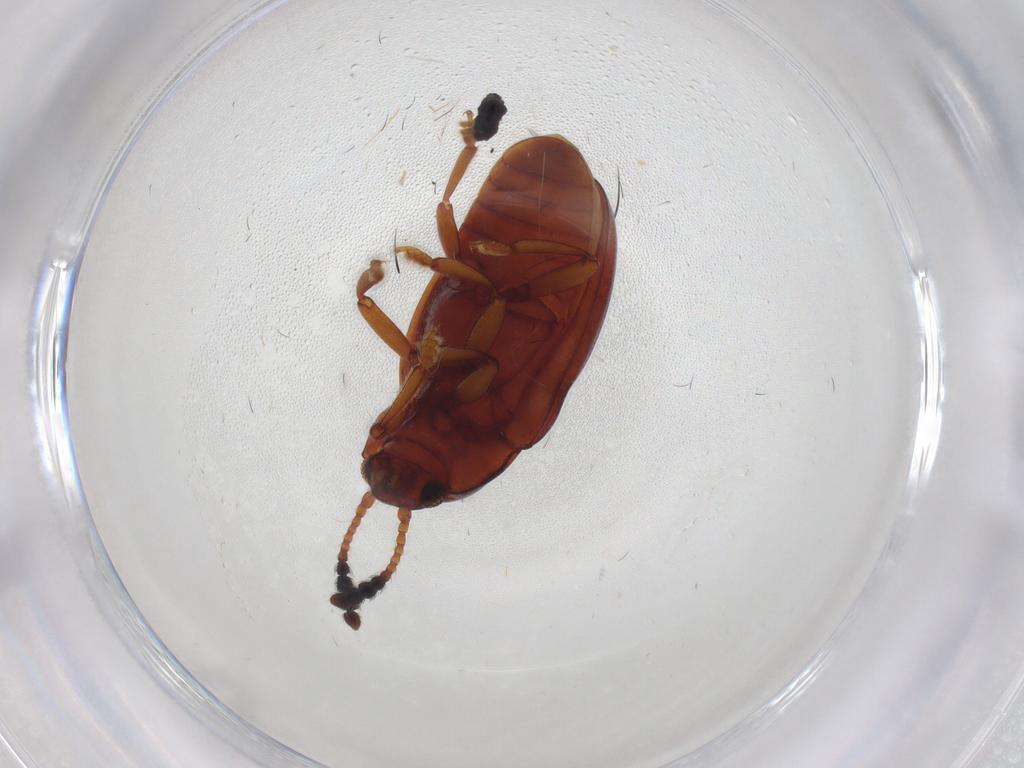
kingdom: Animalia
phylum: Arthropoda
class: Insecta
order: Coleoptera
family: Erotylidae
